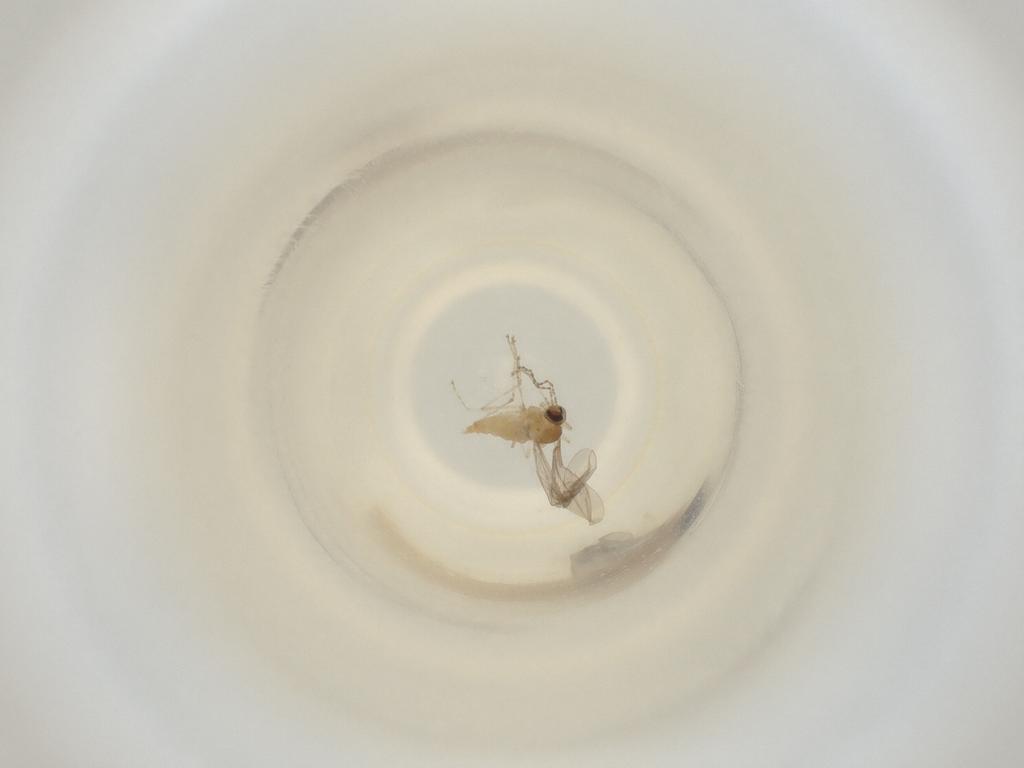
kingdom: Animalia
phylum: Arthropoda
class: Insecta
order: Diptera
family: Cecidomyiidae
